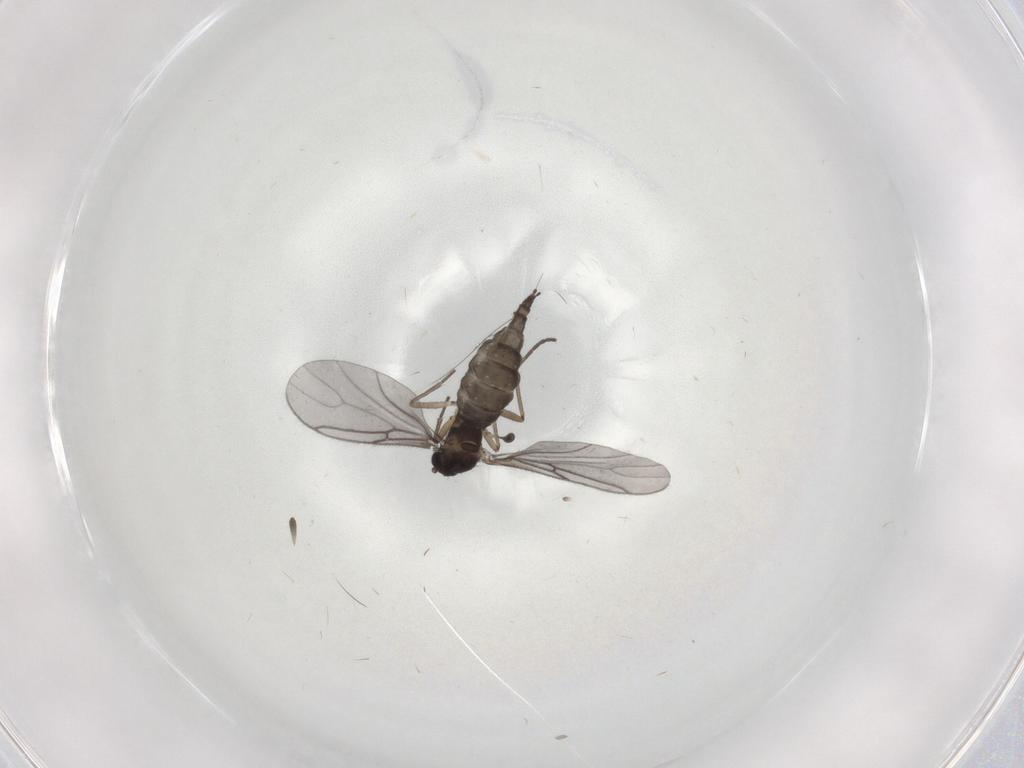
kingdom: Animalia
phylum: Arthropoda
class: Insecta
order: Diptera
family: Sciaridae
